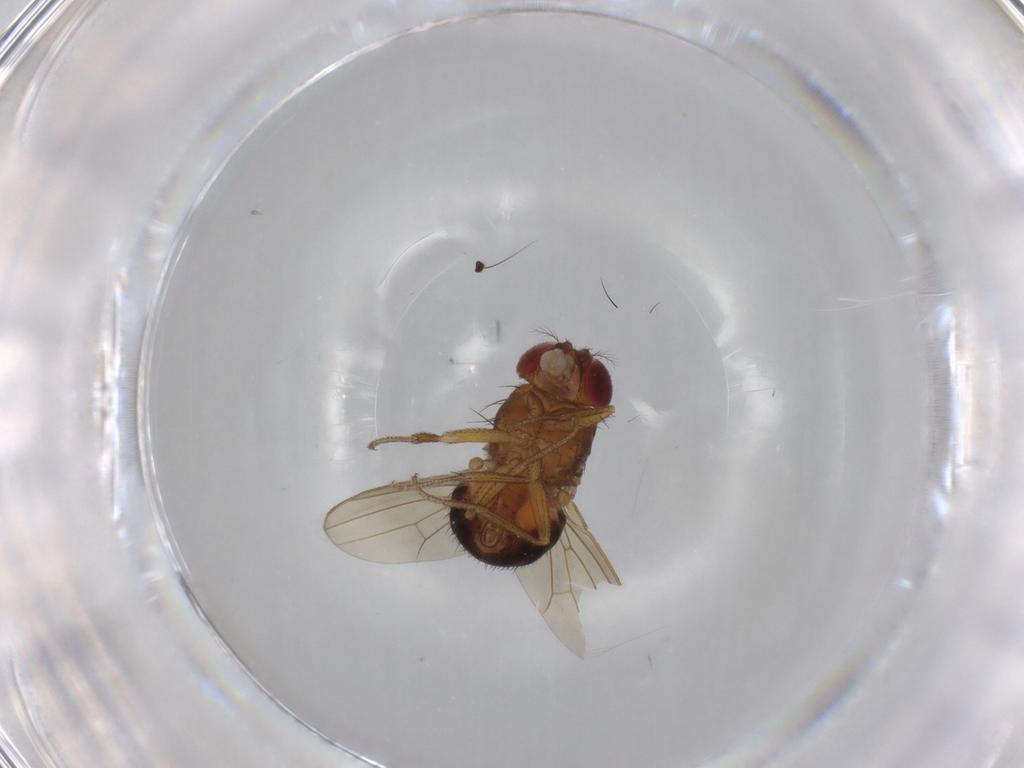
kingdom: Animalia
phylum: Arthropoda
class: Insecta
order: Diptera
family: Drosophilidae
